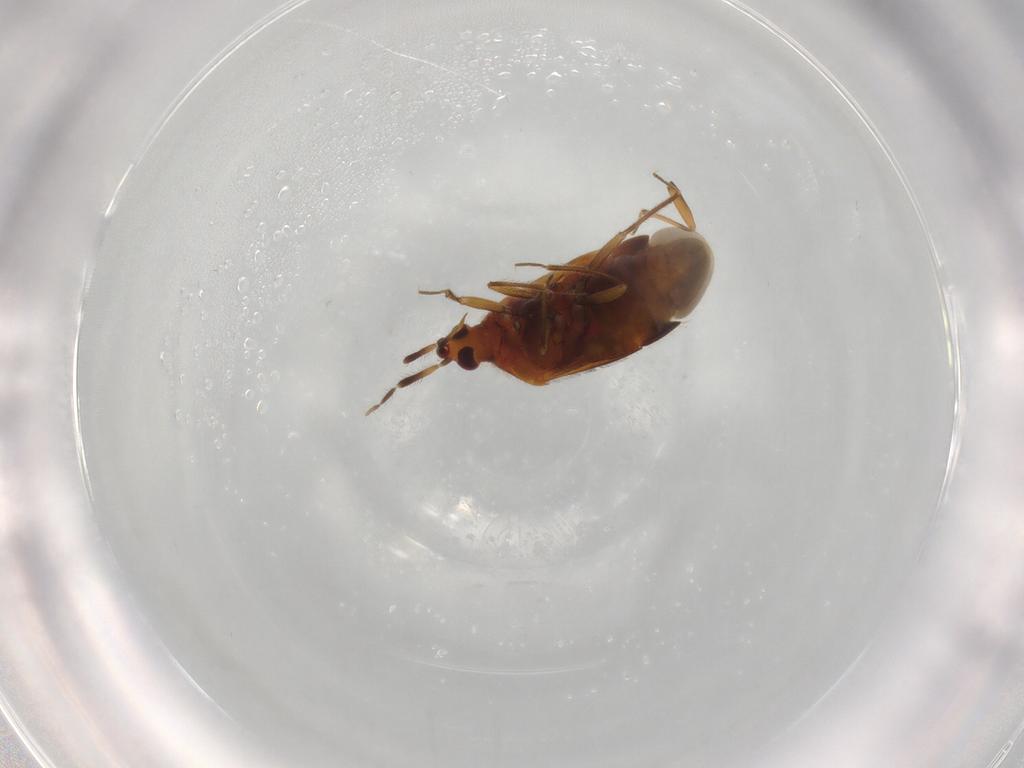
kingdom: Animalia
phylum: Arthropoda
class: Insecta
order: Hemiptera
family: Anthocoridae
